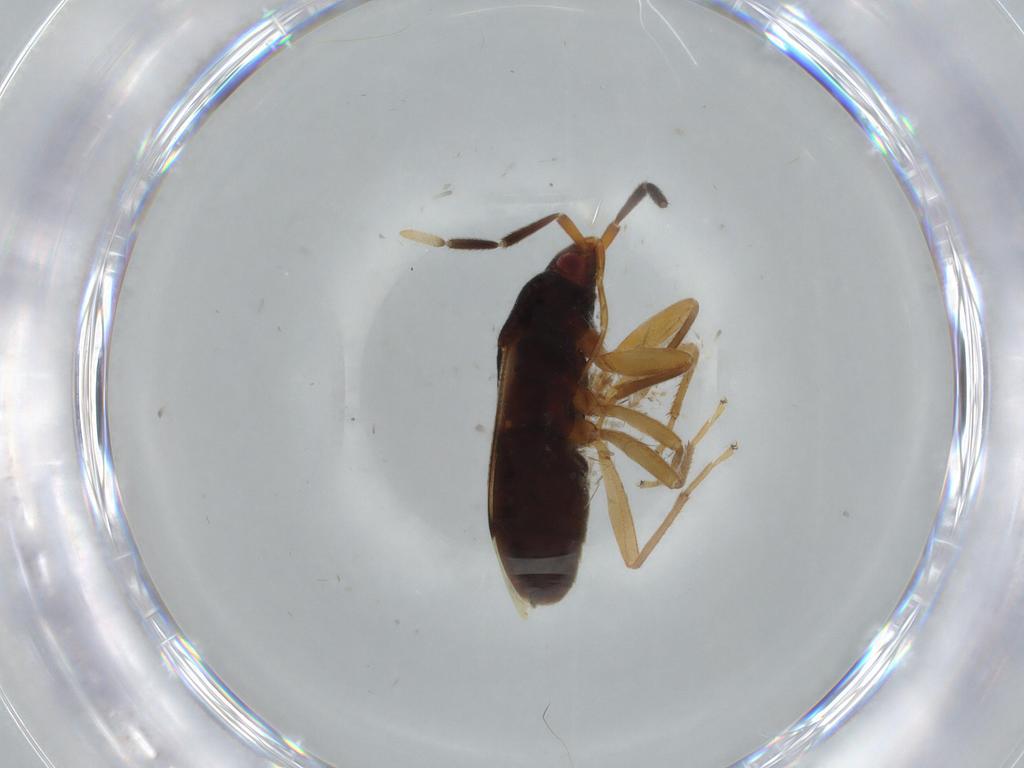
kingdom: Animalia
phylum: Arthropoda
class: Insecta
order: Hemiptera
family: Rhyparochromidae
